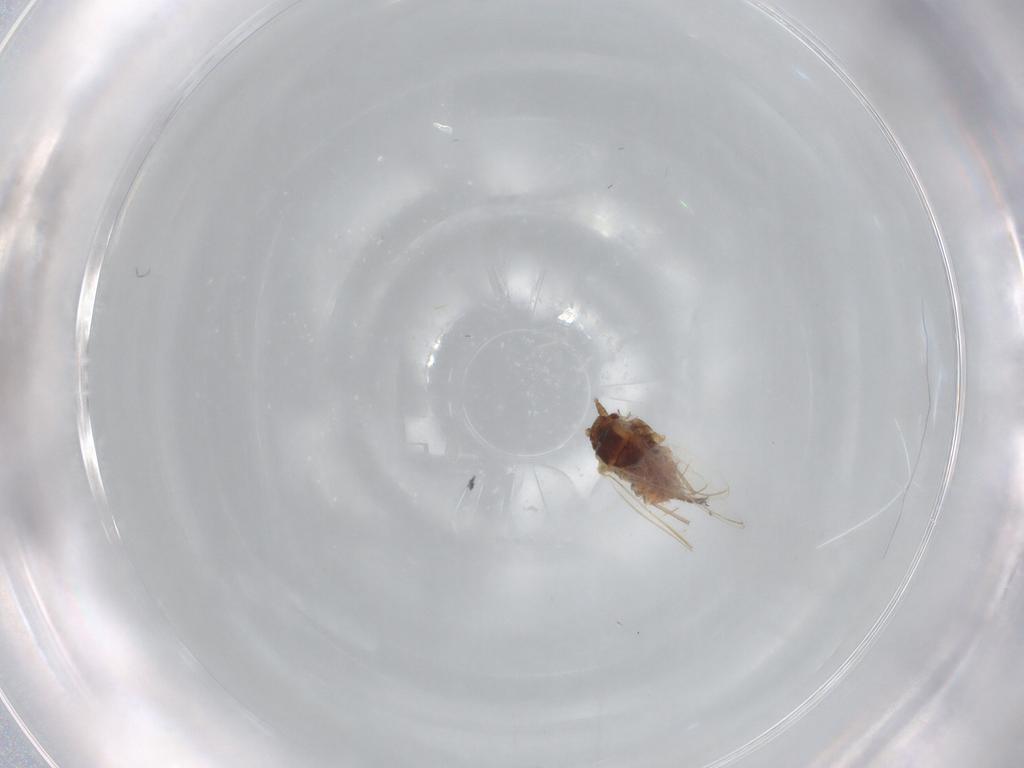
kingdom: Animalia
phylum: Arthropoda
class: Insecta
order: Hemiptera
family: Aphididae
